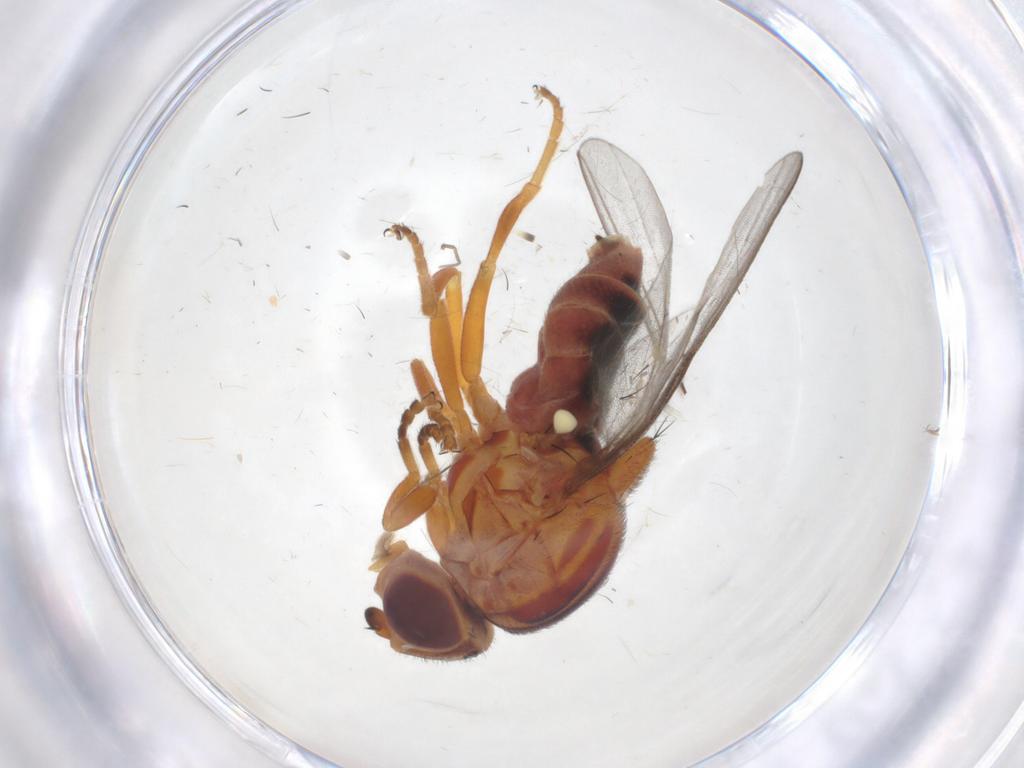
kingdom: Animalia
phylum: Arthropoda
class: Insecta
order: Diptera
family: Chloropidae
